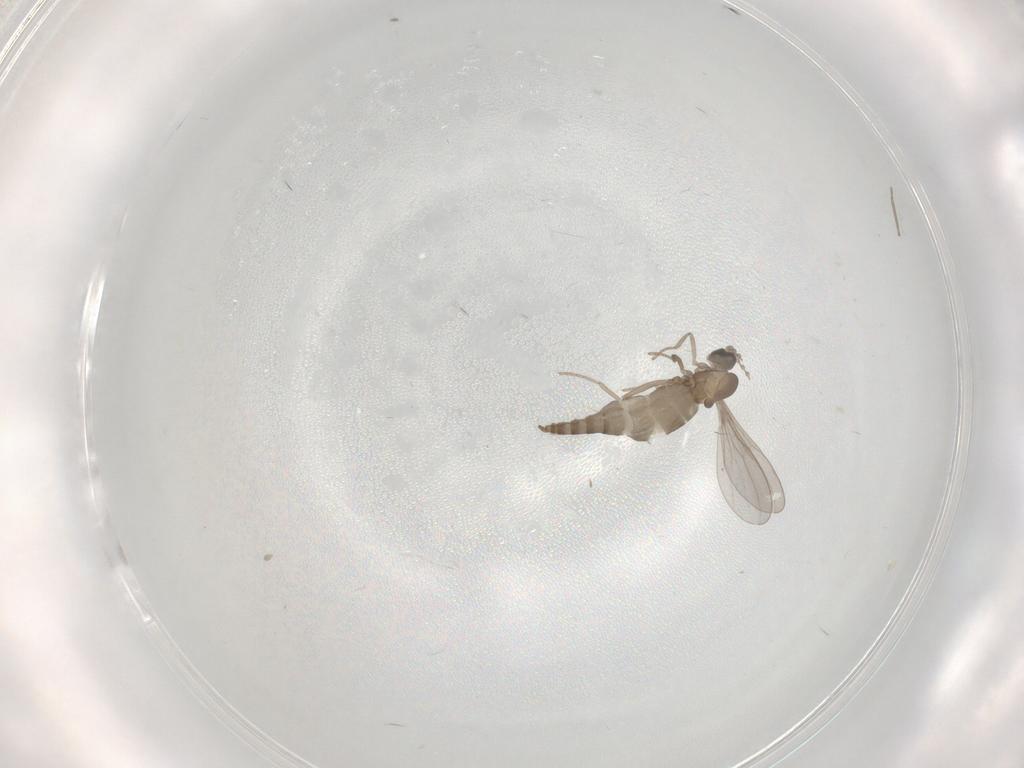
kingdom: Animalia
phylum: Arthropoda
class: Insecta
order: Diptera
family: Cecidomyiidae
